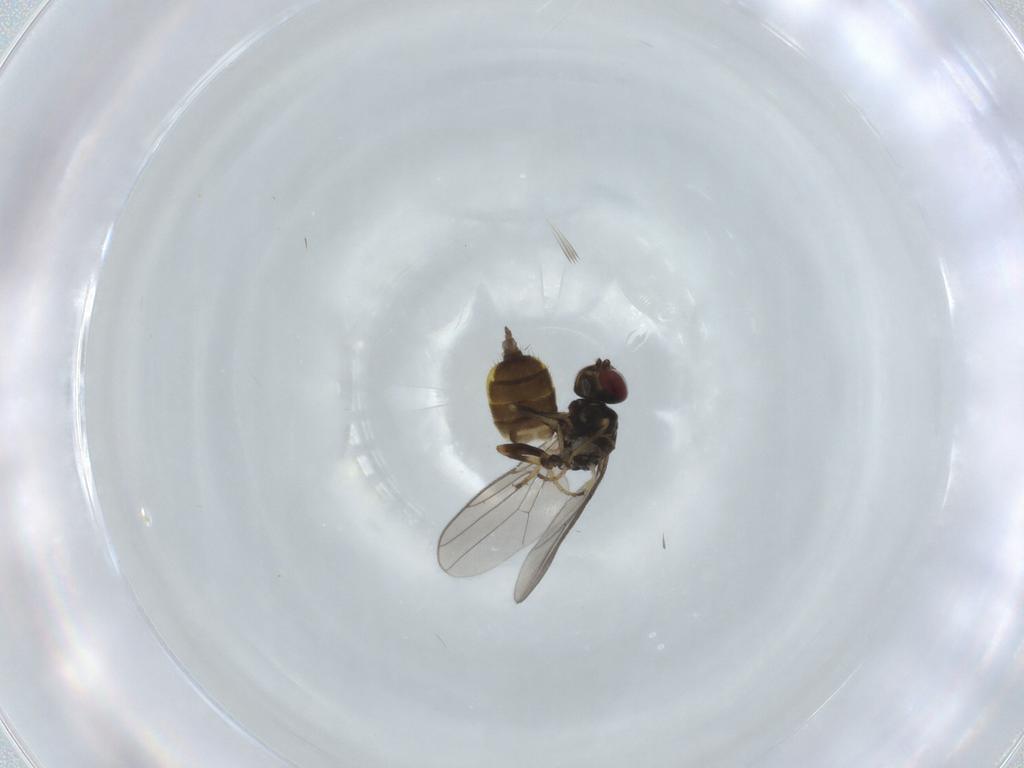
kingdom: Animalia
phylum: Arthropoda
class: Insecta
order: Diptera
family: Chloropidae
